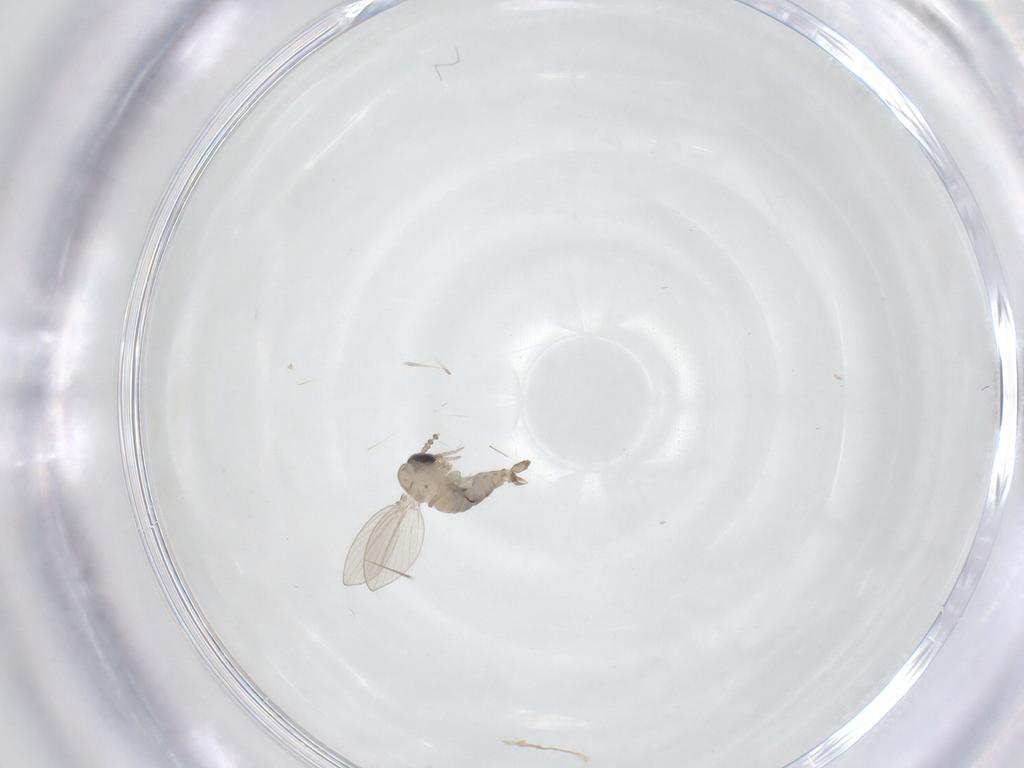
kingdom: Animalia
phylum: Arthropoda
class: Insecta
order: Diptera
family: Psychodidae
